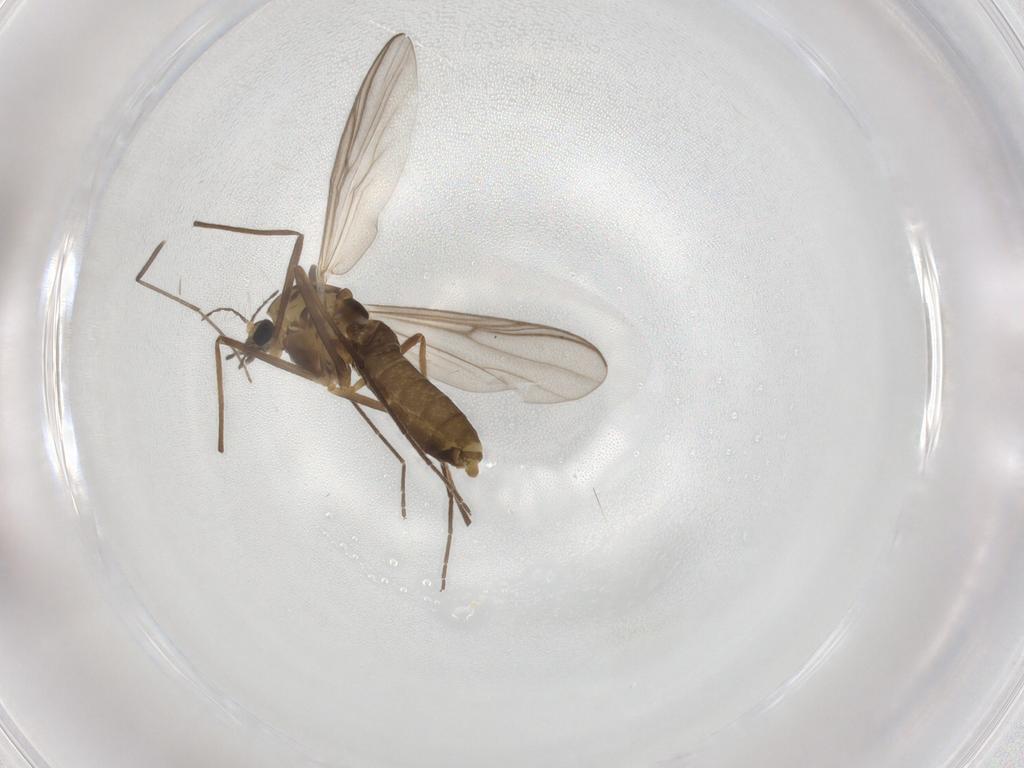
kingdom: Animalia
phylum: Arthropoda
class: Insecta
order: Diptera
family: Chironomidae
